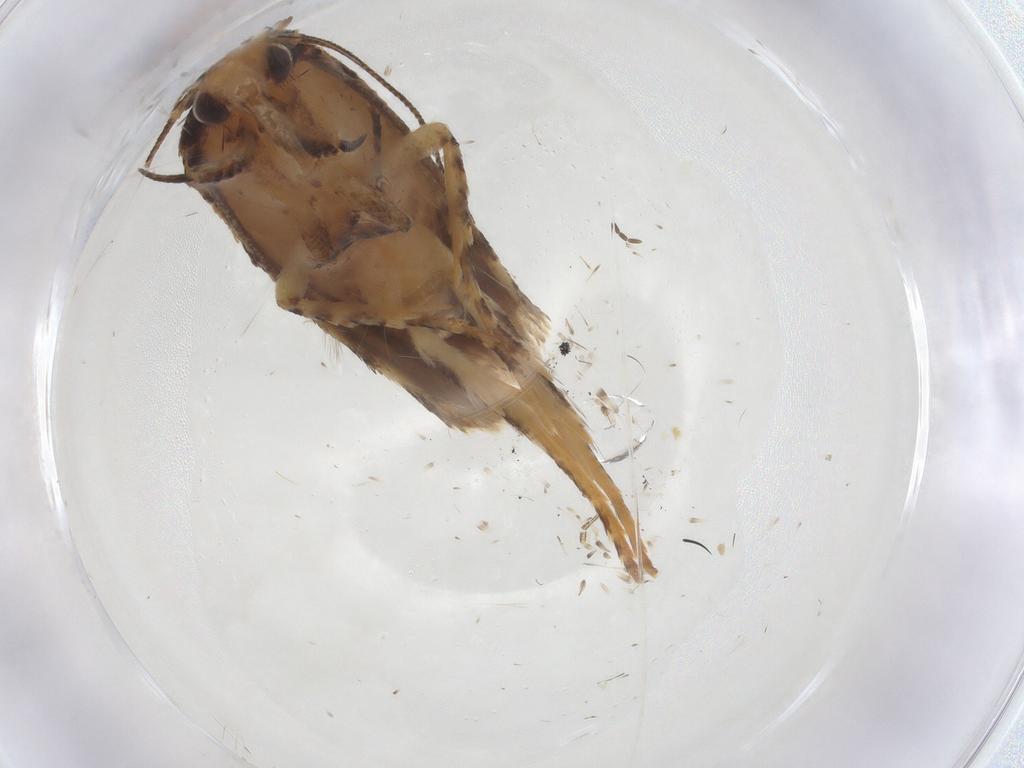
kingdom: Animalia
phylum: Arthropoda
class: Insecta
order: Lepidoptera
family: Gelechiidae
